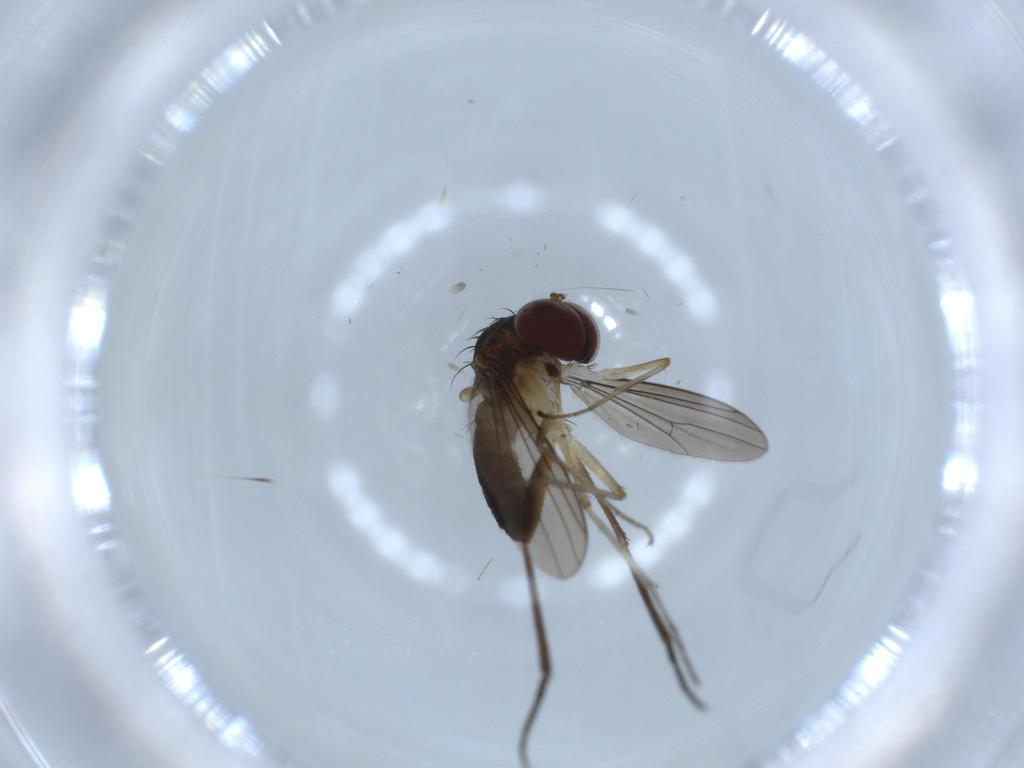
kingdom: Animalia
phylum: Arthropoda
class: Insecta
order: Diptera
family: Dolichopodidae
